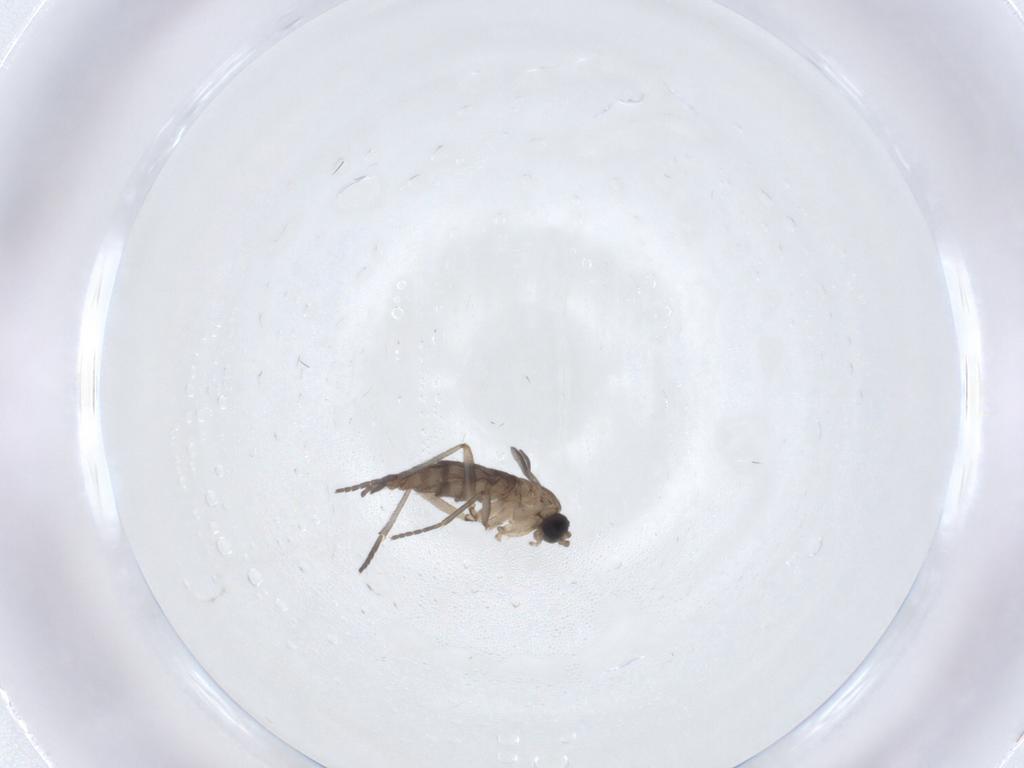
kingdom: Animalia
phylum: Arthropoda
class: Insecta
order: Diptera
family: Sciaridae
